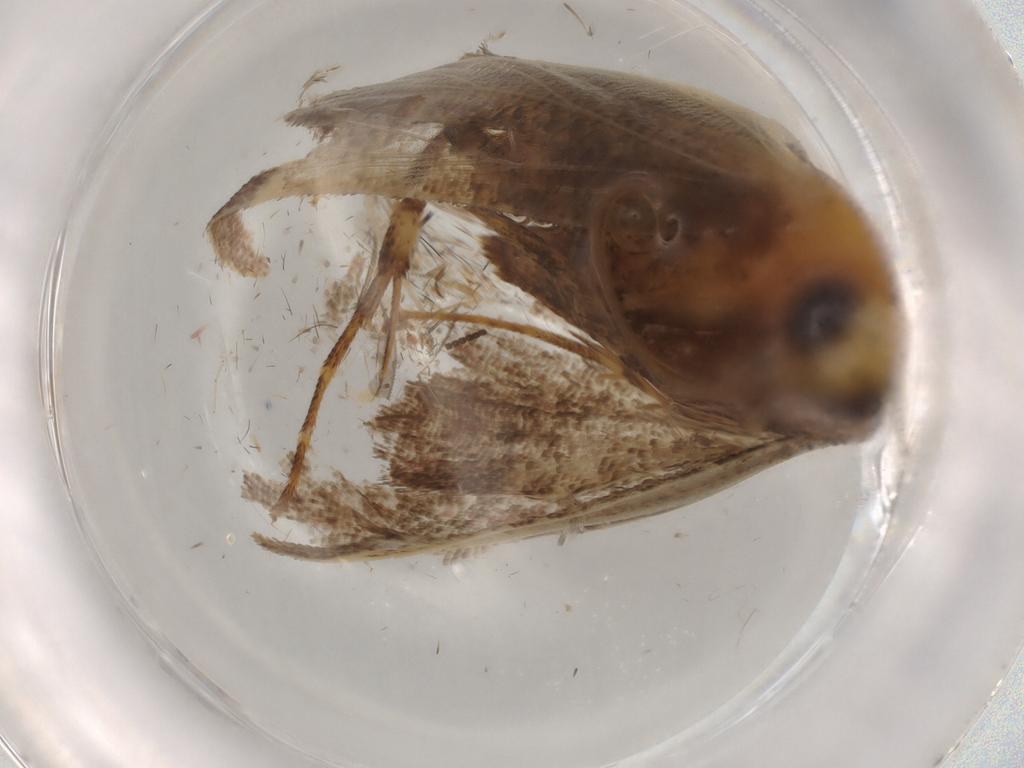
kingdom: Animalia
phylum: Arthropoda
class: Insecta
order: Lepidoptera
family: Pyralidae
